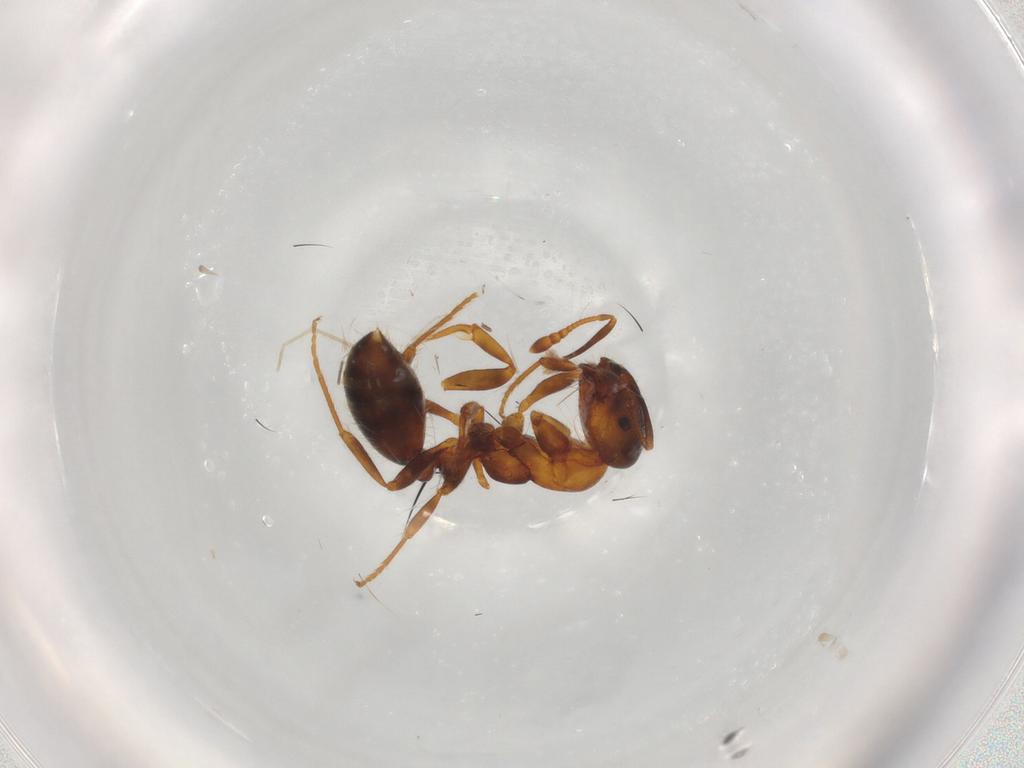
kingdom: Animalia
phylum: Arthropoda
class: Insecta
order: Hymenoptera
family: Formicidae
